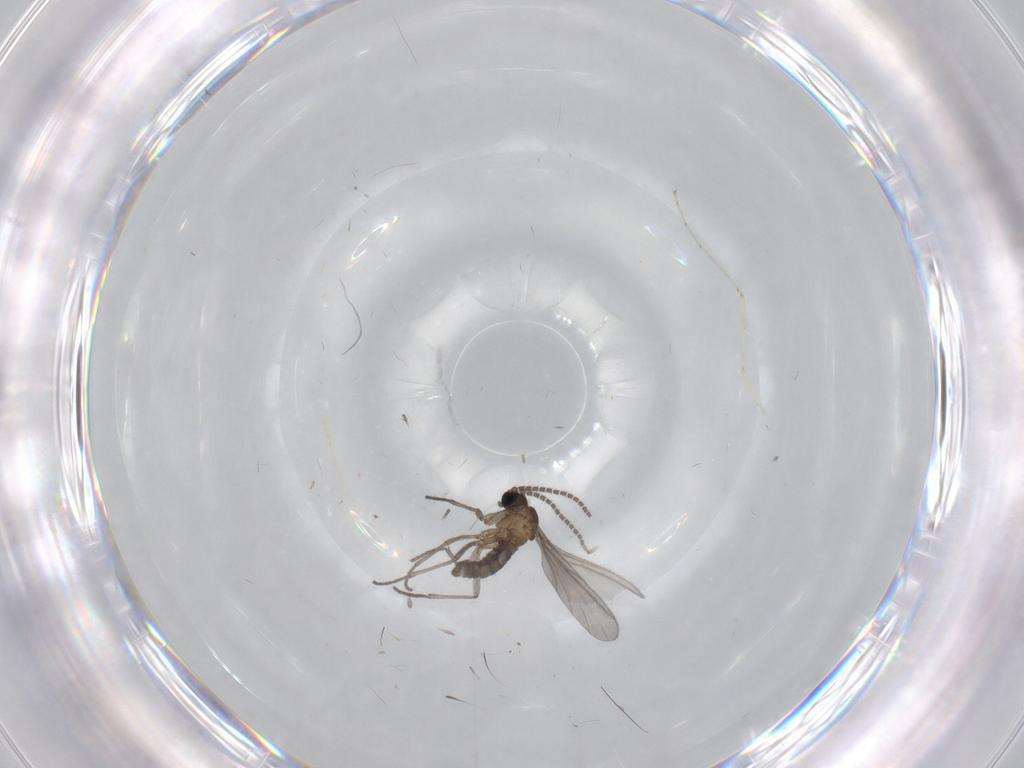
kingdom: Animalia
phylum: Arthropoda
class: Insecta
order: Diptera
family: Sciaridae
